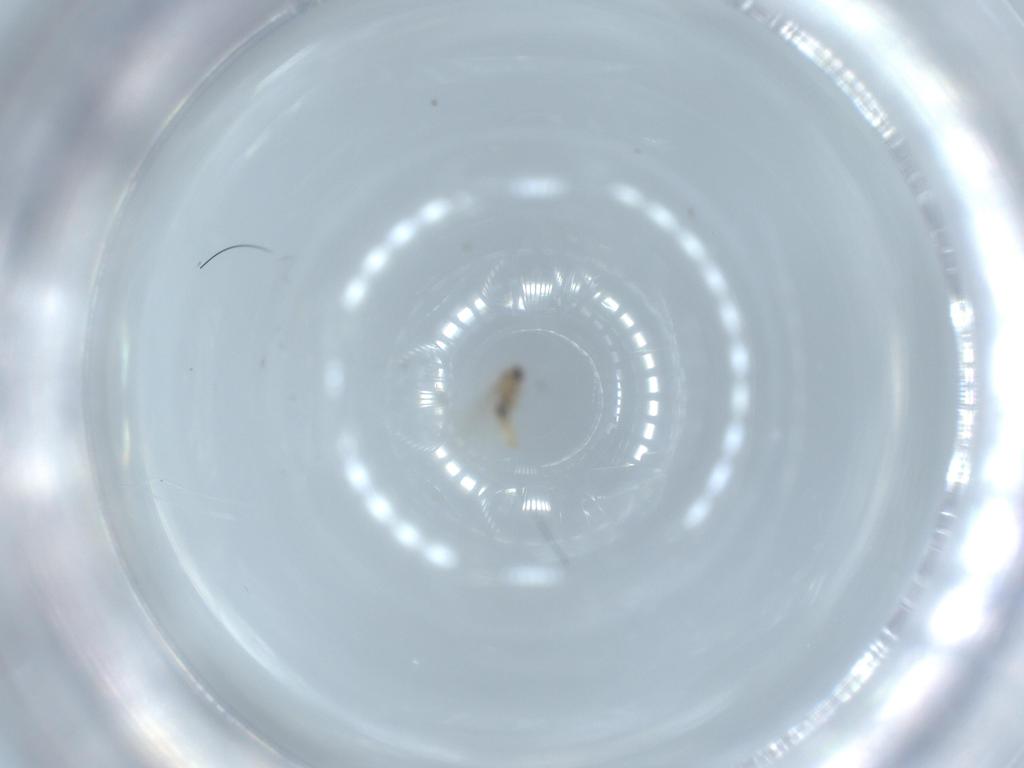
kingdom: Animalia
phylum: Arthropoda
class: Insecta
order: Diptera
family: Cecidomyiidae
